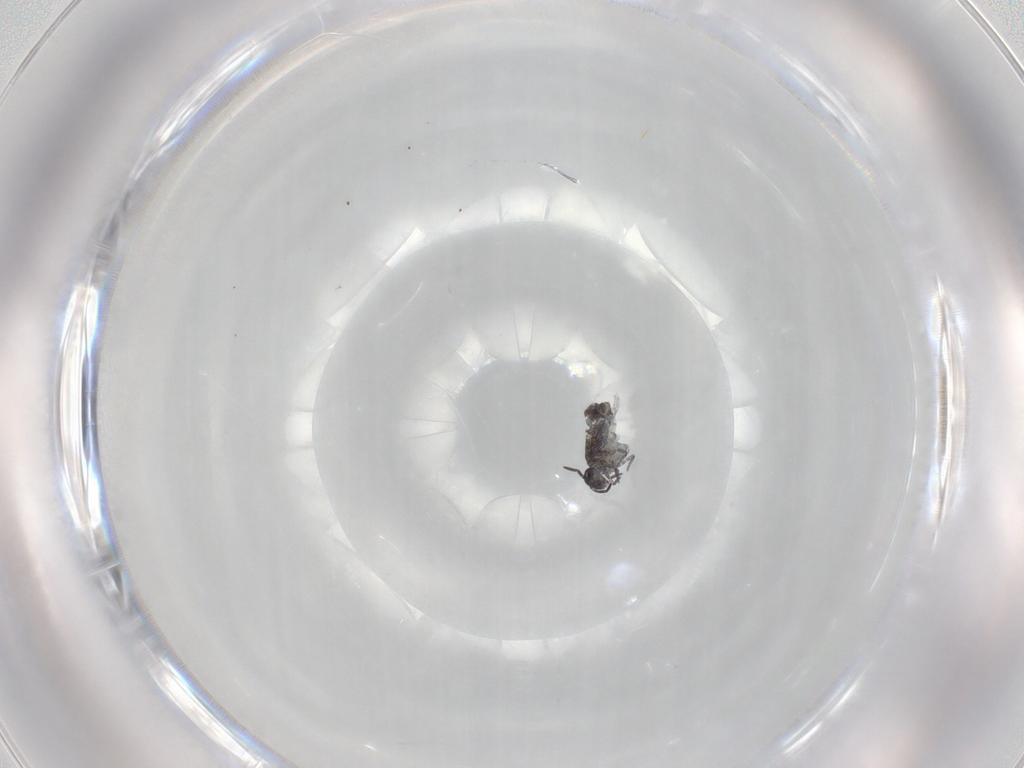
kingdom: Animalia
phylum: Arthropoda
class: Collembola
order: Symphypleona
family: Katiannidae
